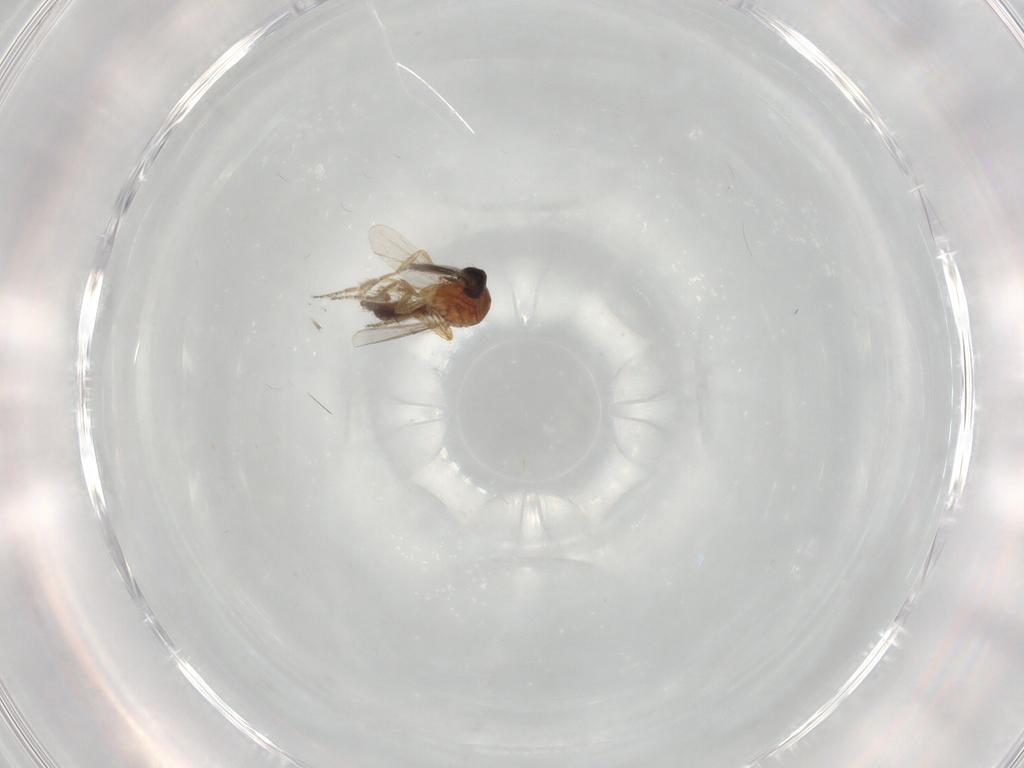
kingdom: Animalia
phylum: Arthropoda
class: Insecta
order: Diptera
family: Ceratopogonidae
